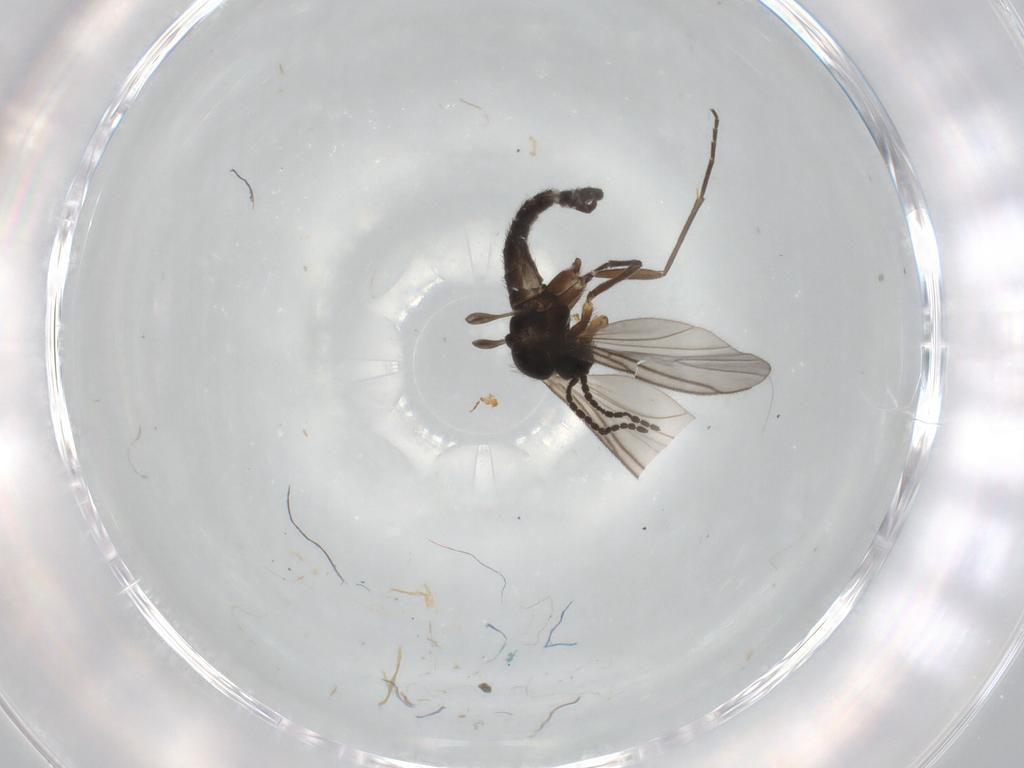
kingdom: Animalia
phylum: Arthropoda
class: Insecta
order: Diptera
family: Sciaridae
